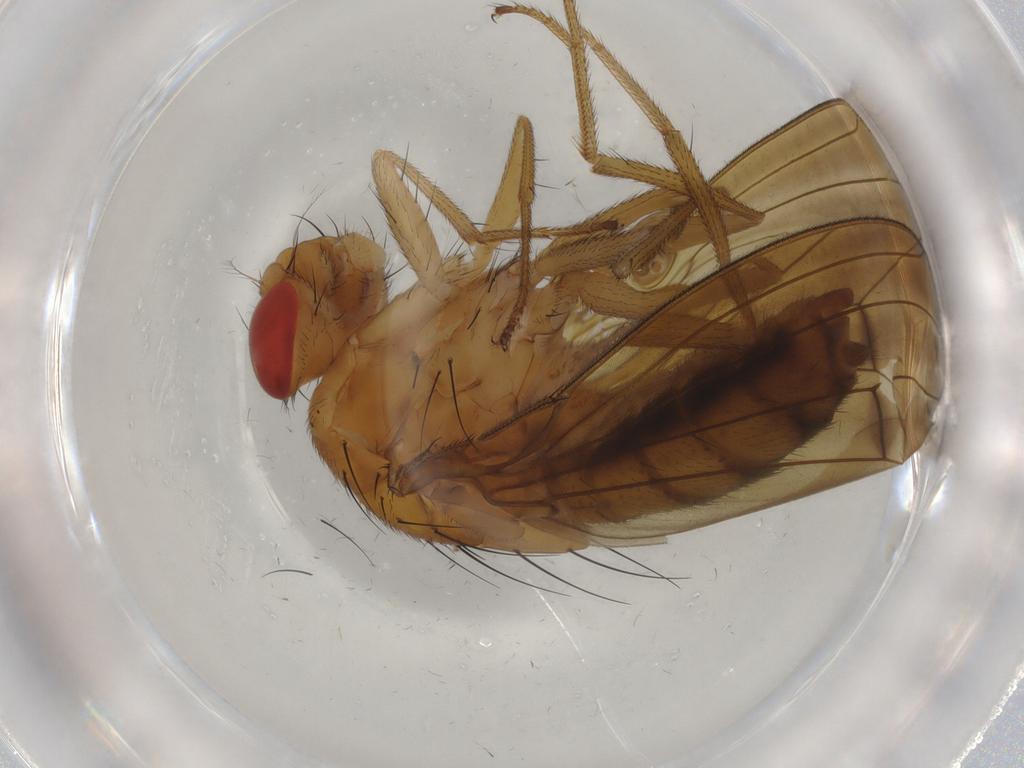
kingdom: Animalia
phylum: Arthropoda
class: Insecta
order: Diptera
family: Drosophilidae
